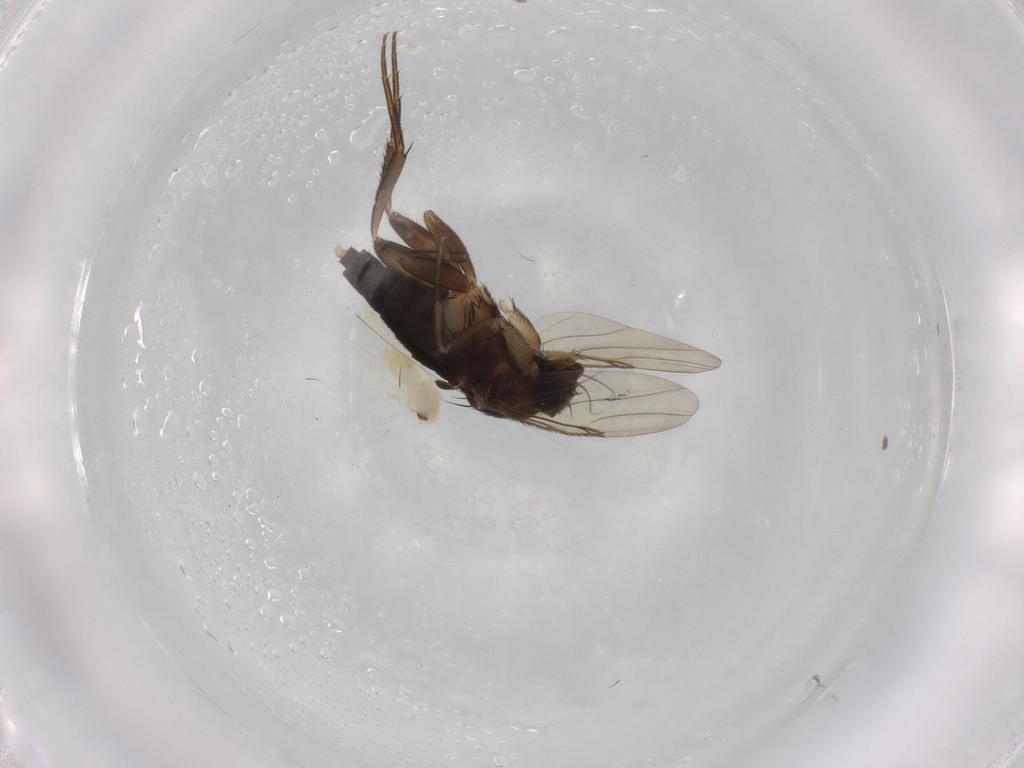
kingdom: Animalia
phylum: Arthropoda
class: Insecta
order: Diptera
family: Phoridae
